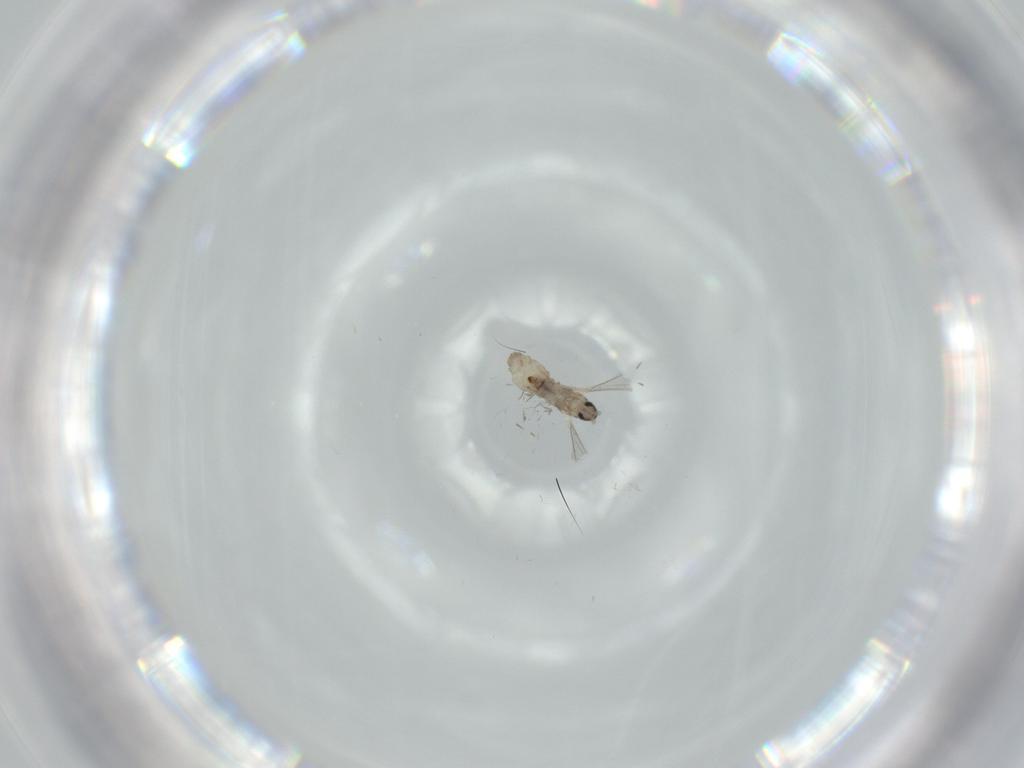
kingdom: Animalia
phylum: Arthropoda
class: Insecta
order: Diptera
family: Cecidomyiidae
